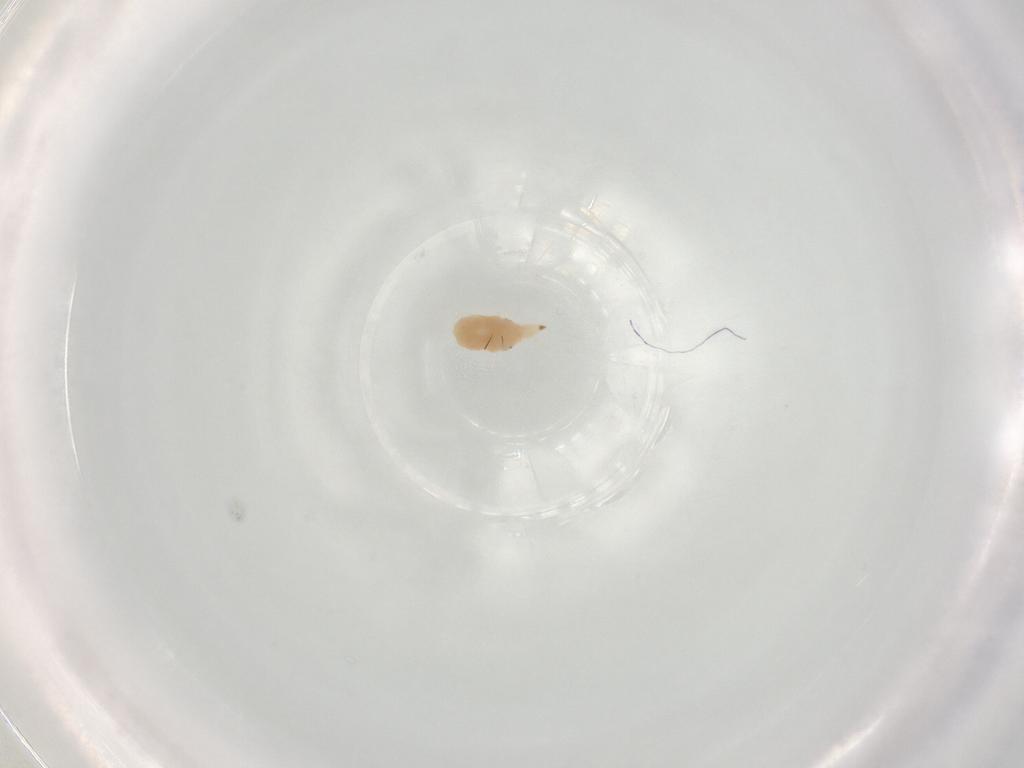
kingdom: Animalia
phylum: Arthropoda
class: Arachnida
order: Trombidiformes
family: Bdellidae
